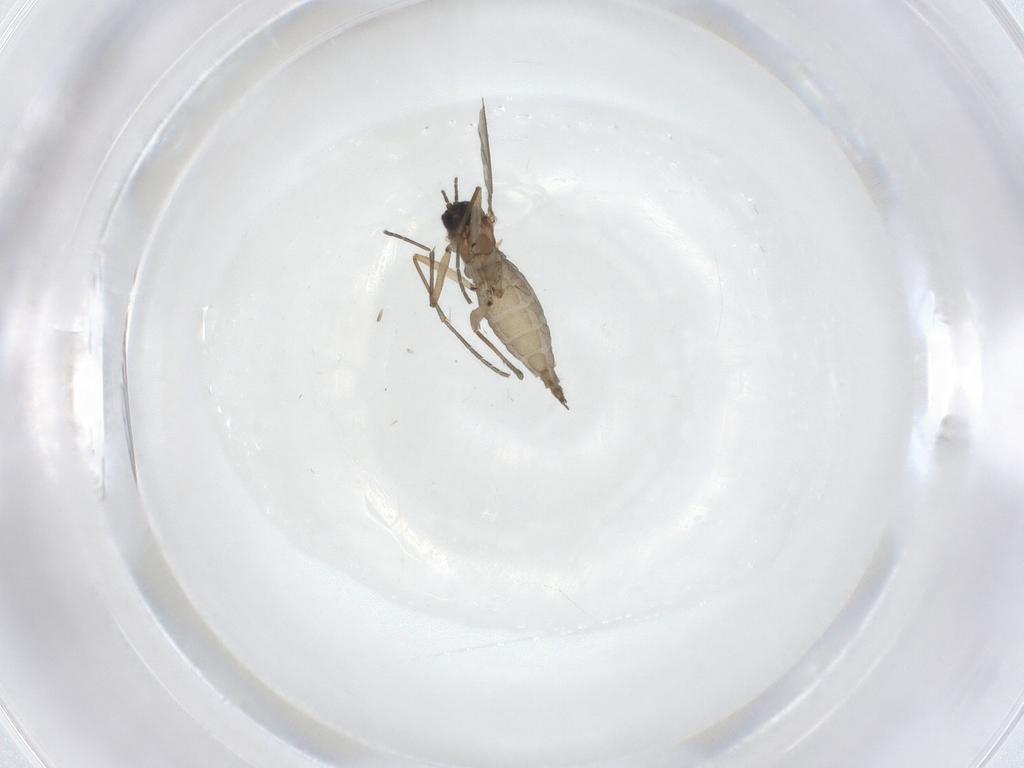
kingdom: Animalia
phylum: Arthropoda
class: Insecta
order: Diptera
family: Sciaridae
